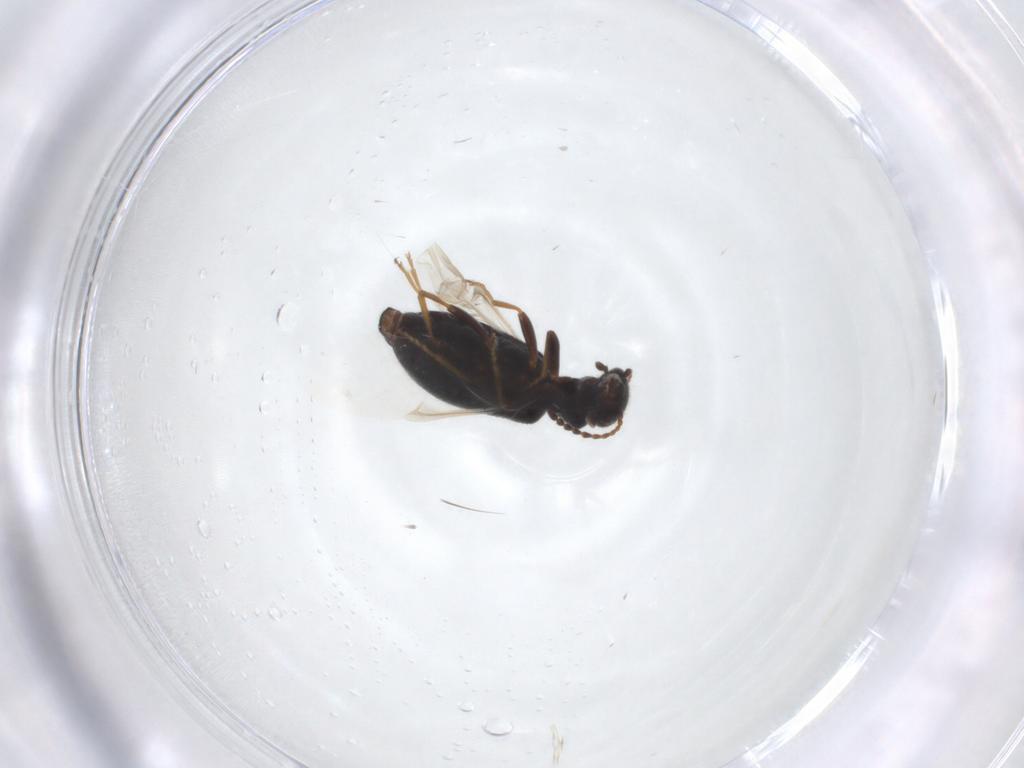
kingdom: Animalia
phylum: Arthropoda
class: Insecta
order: Coleoptera
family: Anthicidae
